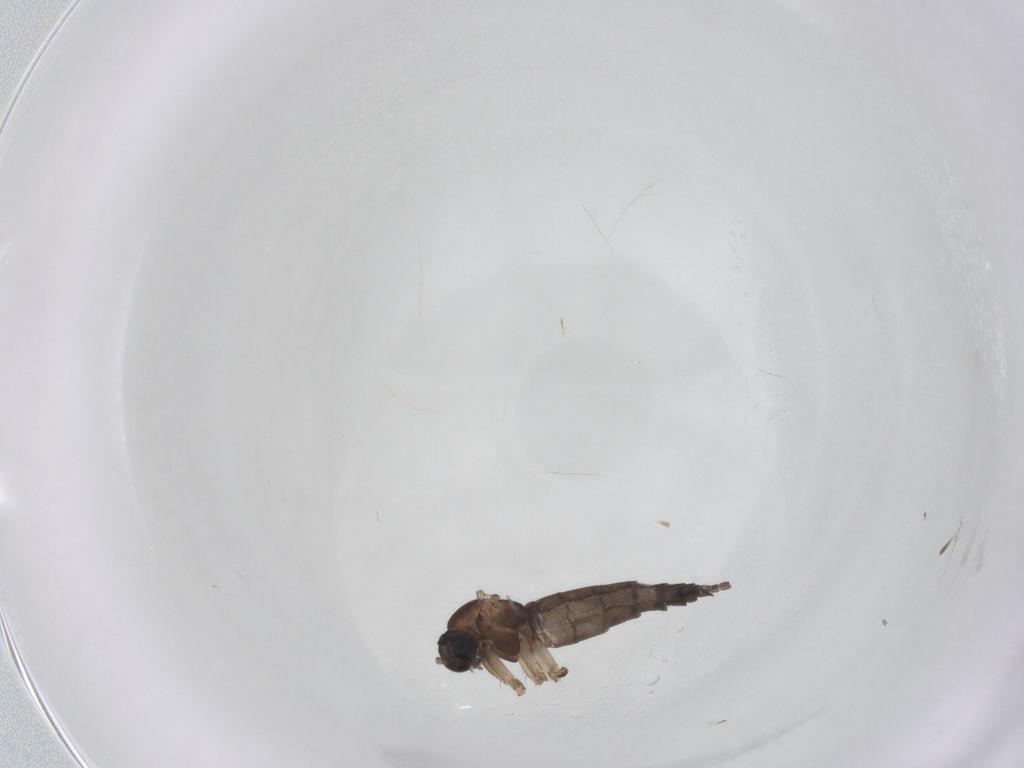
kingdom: Animalia
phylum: Arthropoda
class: Insecta
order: Diptera
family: Sciaridae
